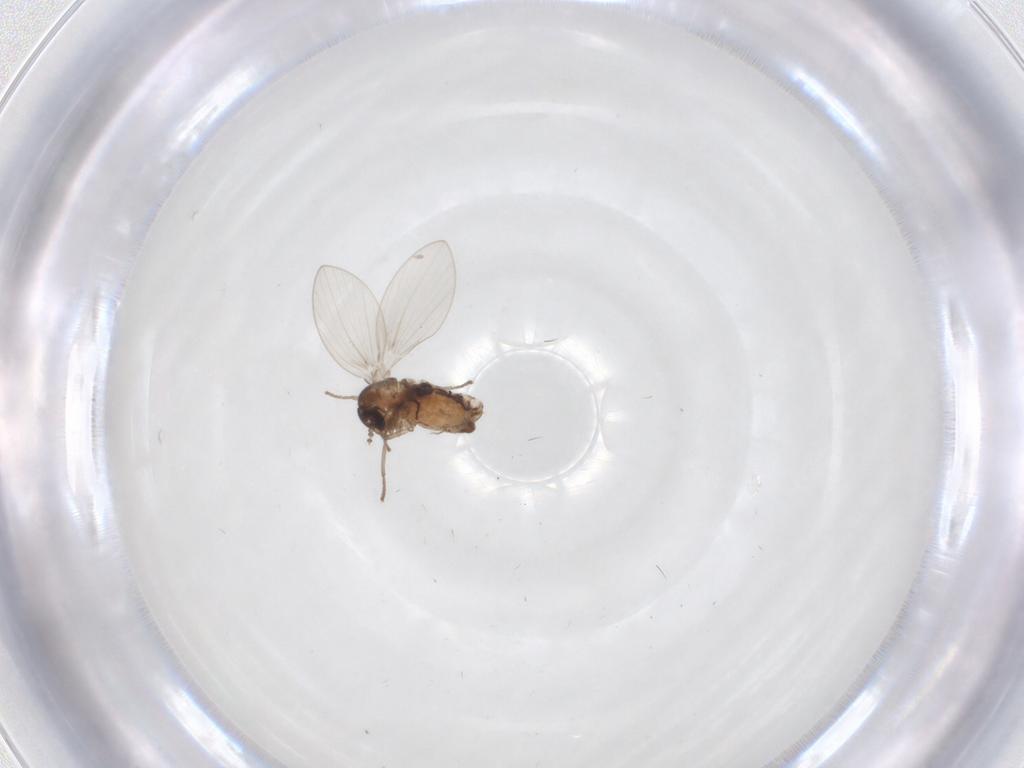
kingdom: Animalia
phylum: Arthropoda
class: Insecta
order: Diptera
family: Psychodidae
